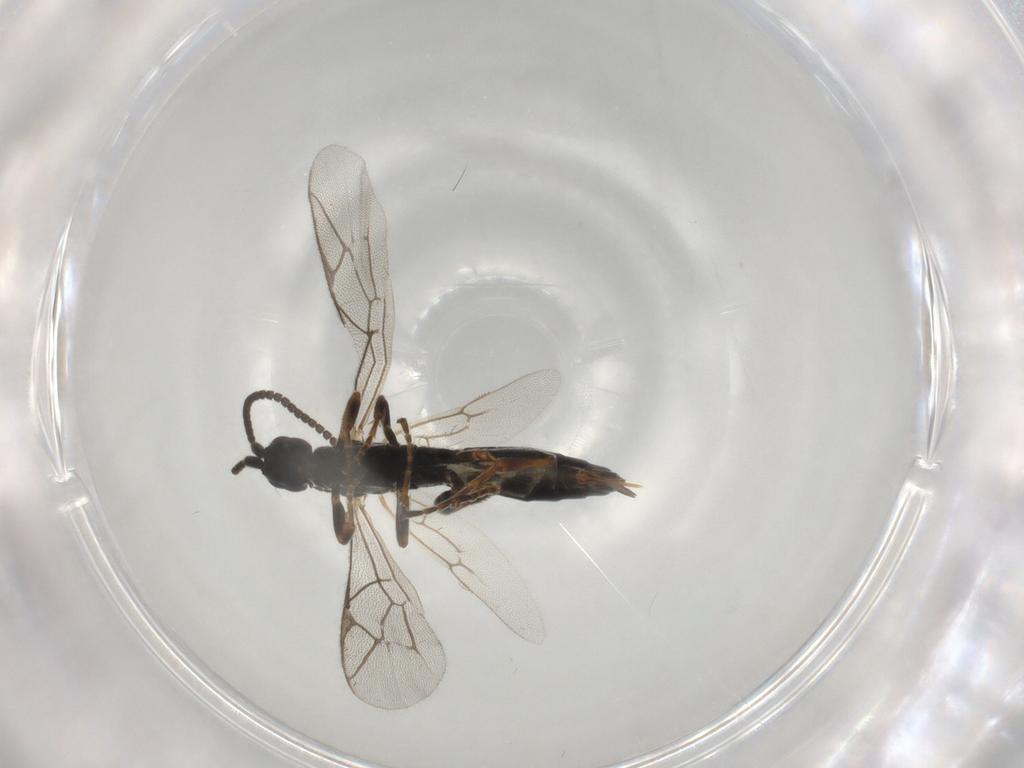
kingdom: Animalia
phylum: Arthropoda
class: Insecta
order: Hymenoptera
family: Ichneumonidae
